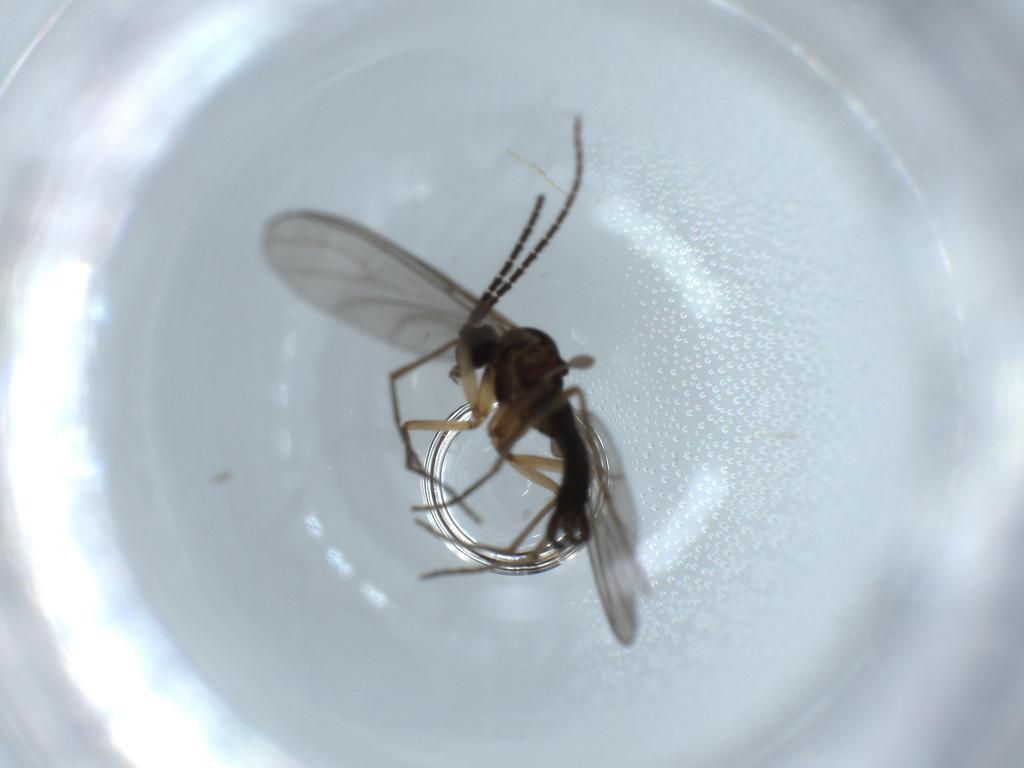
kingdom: Animalia
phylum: Arthropoda
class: Insecta
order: Diptera
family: Sciaridae
